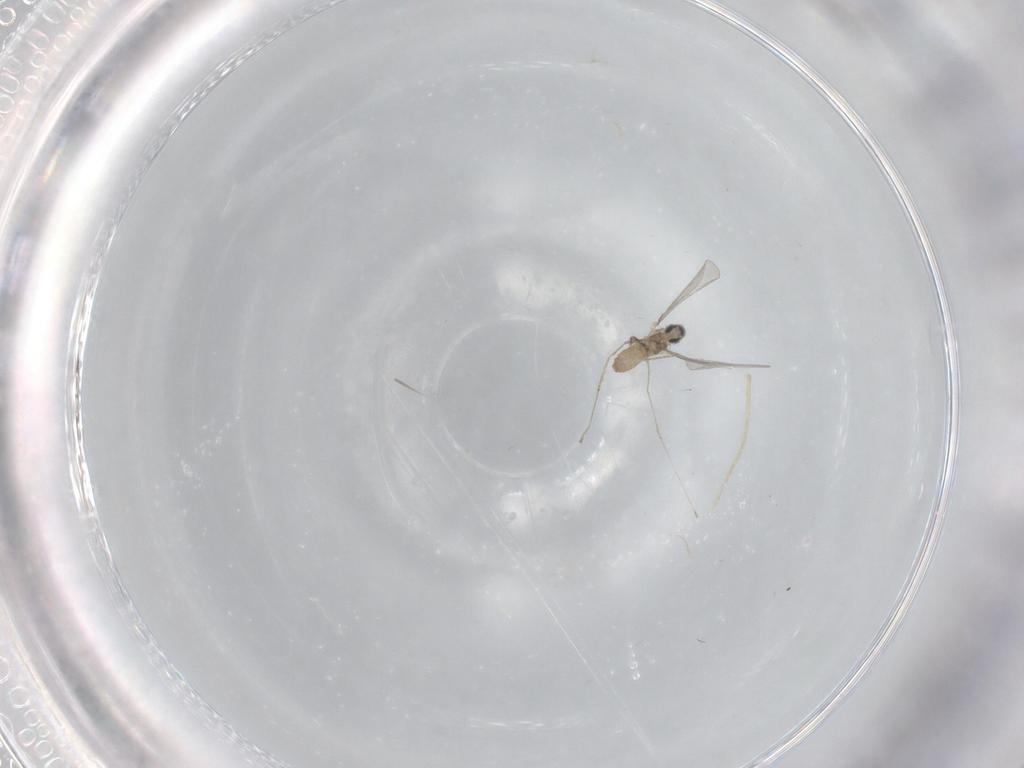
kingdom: Animalia
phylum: Arthropoda
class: Insecta
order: Diptera
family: Cecidomyiidae
